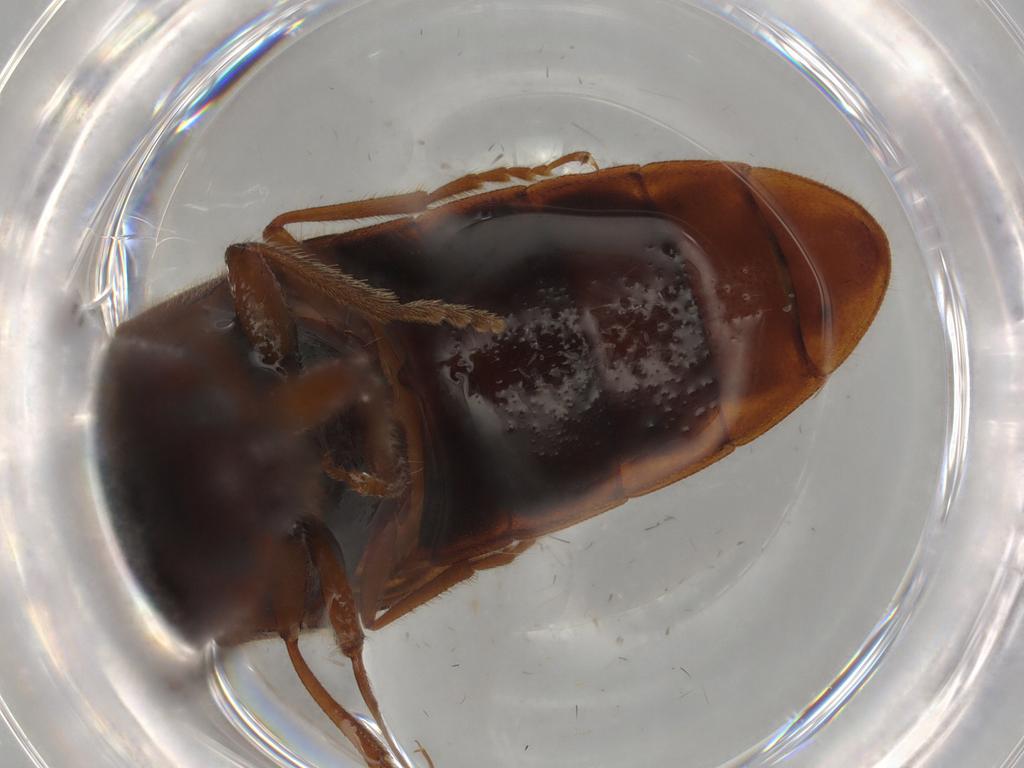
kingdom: Animalia
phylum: Arthropoda
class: Insecta
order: Coleoptera
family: Elateridae
